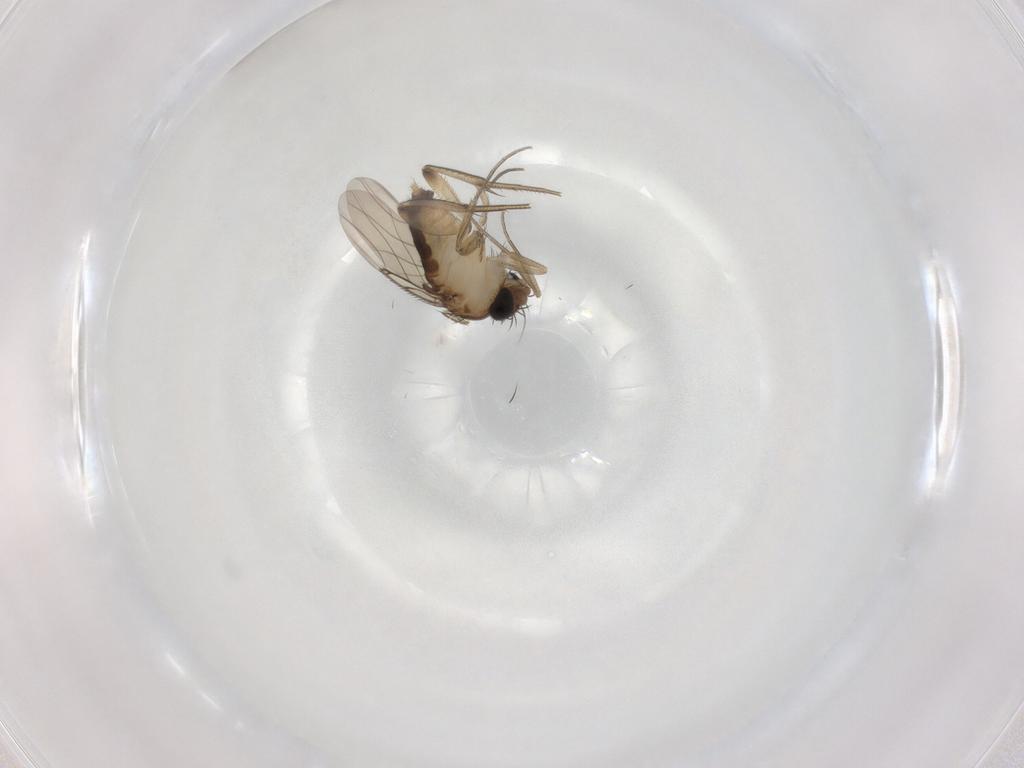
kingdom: Animalia
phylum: Arthropoda
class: Insecta
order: Diptera
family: Phoridae
